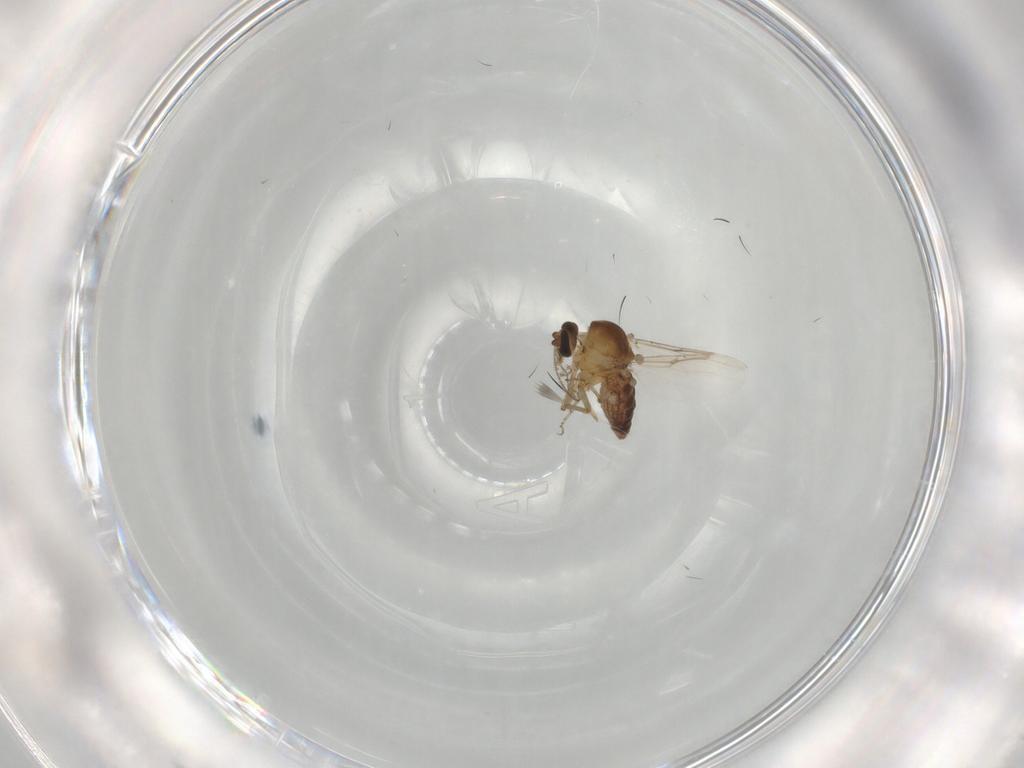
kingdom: Animalia
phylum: Arthropoda
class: Insecta
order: Diptera
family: Ceratopogonidae
